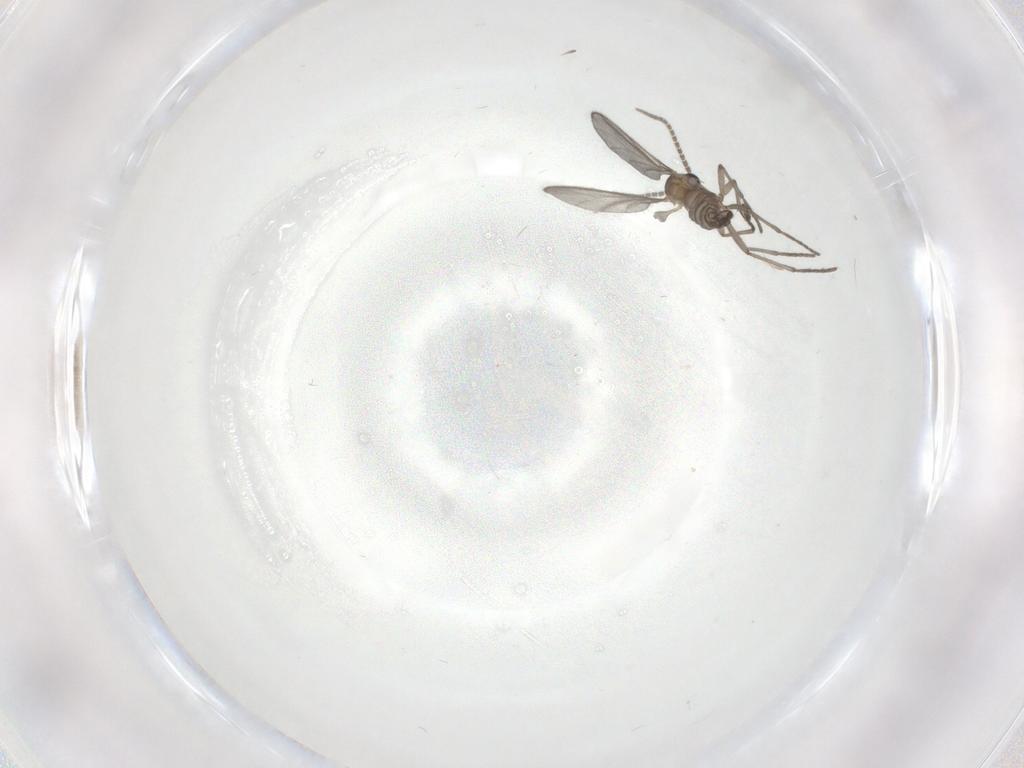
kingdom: Animalia
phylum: Arthropoda
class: Insecta
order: Diptera
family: Sciaridae
